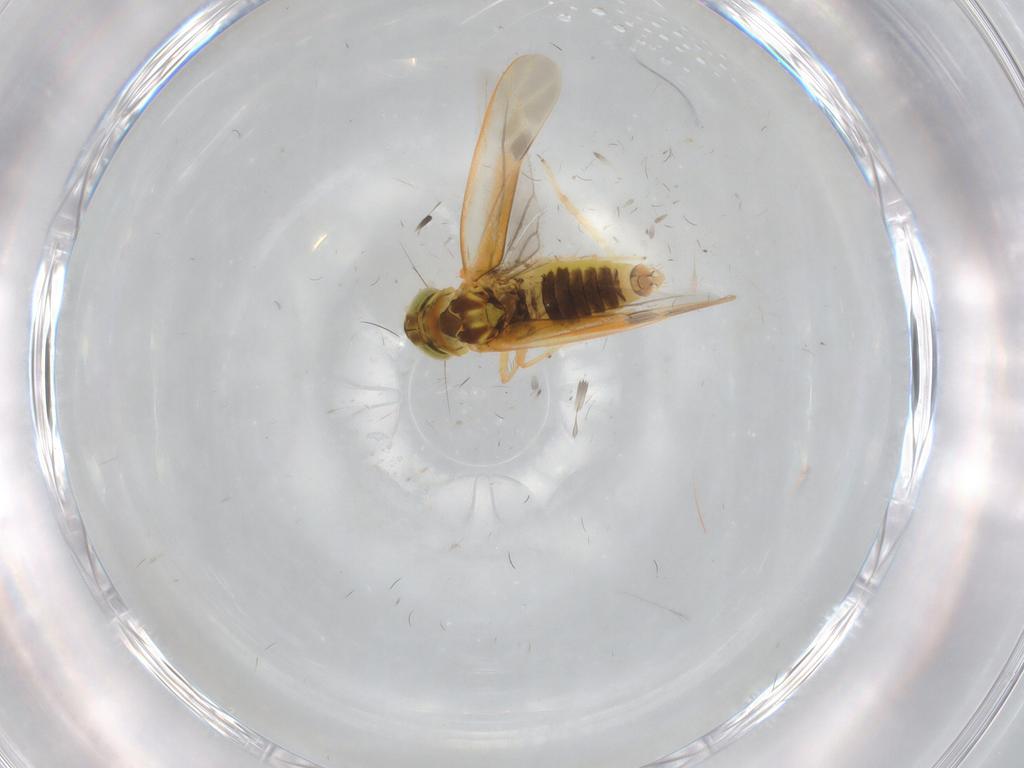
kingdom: Animalia
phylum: Arthropoda
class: Insecta
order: Hemiptera
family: Cicadellidae
